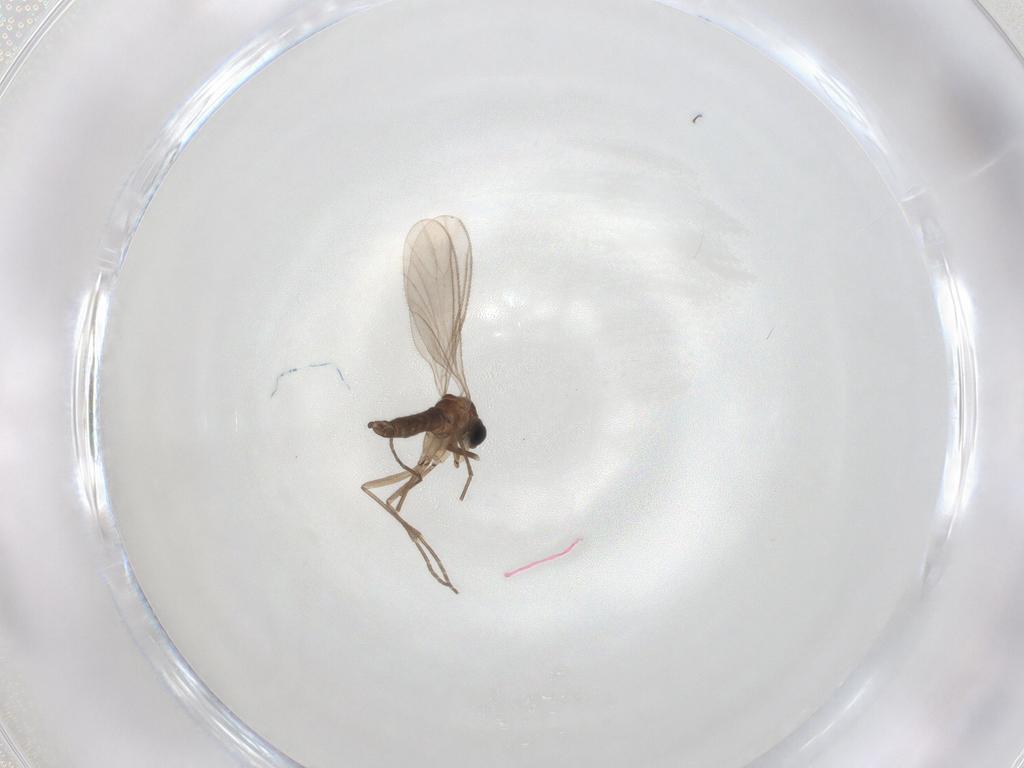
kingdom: Animalia
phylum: Arthropoda
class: Insecta
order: Diptera
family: Sciaridae
